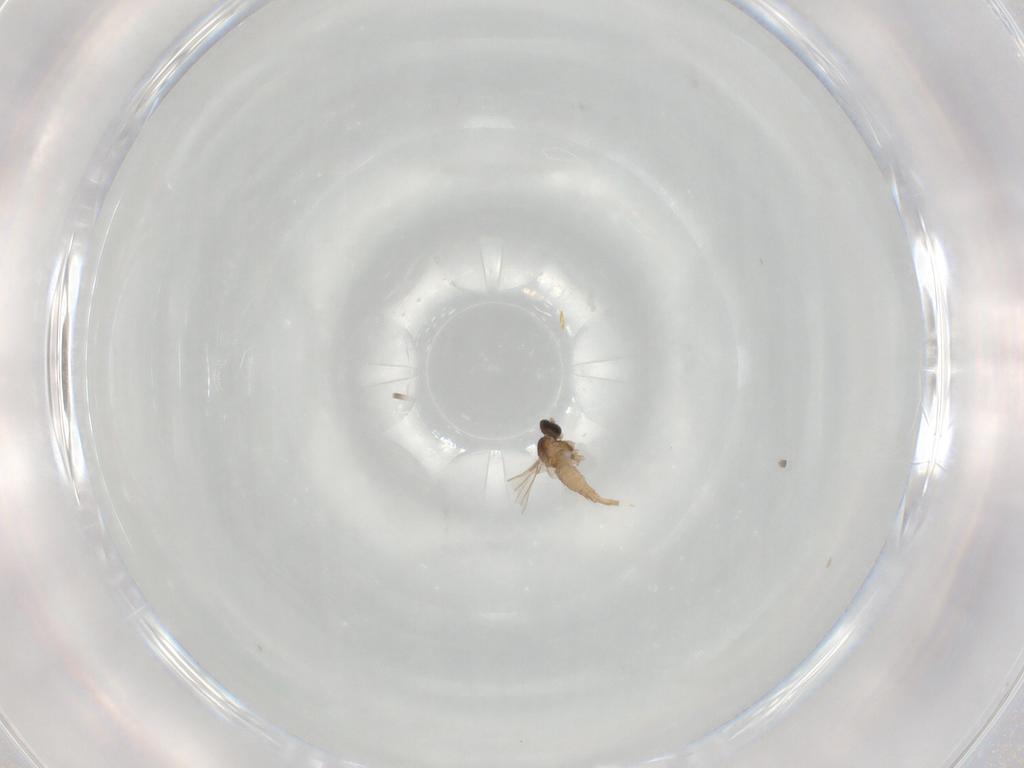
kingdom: Animalia
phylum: Arthropoda
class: Insecta
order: Diptera
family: Cecidomyiidae
